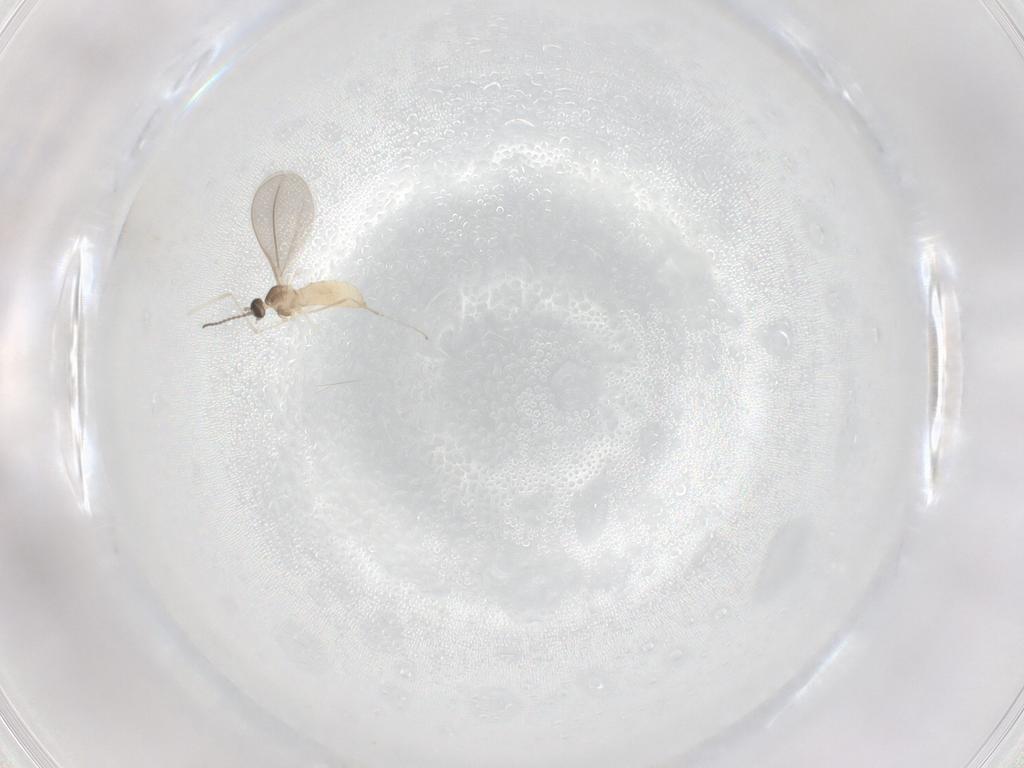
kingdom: Animalia
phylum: Arthropoda
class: Insecta
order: Diptera
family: Cecidomyiidae
